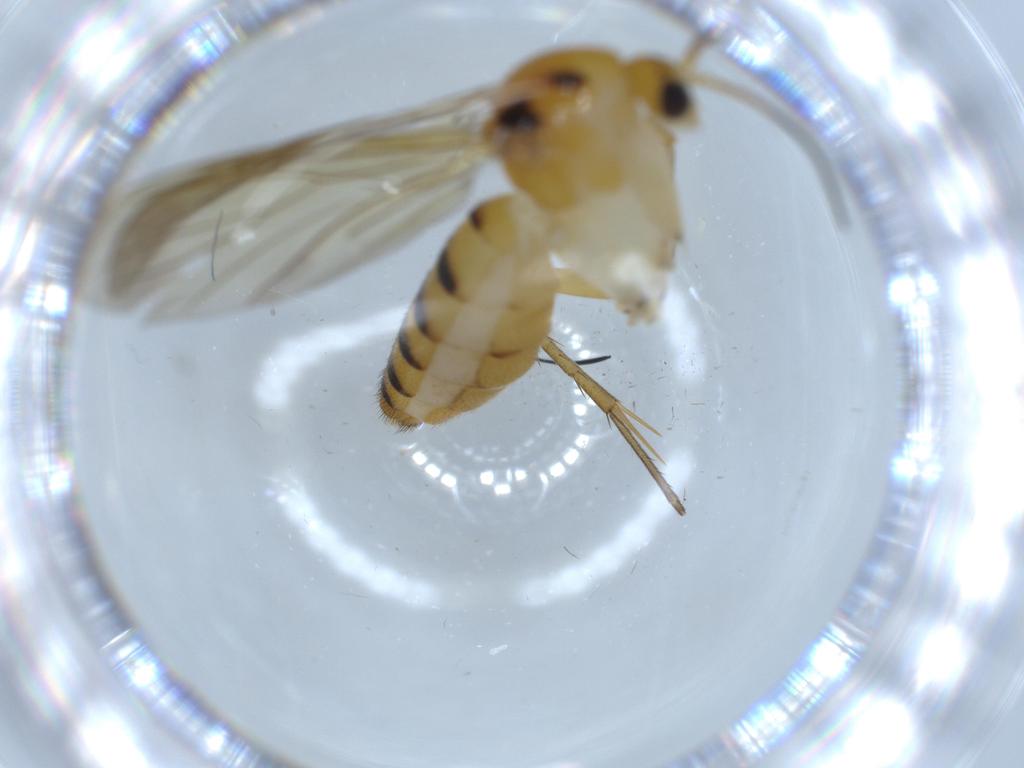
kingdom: Animalia
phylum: Arthropoda
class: Insecta
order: Diptera
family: Mycetophilidae
